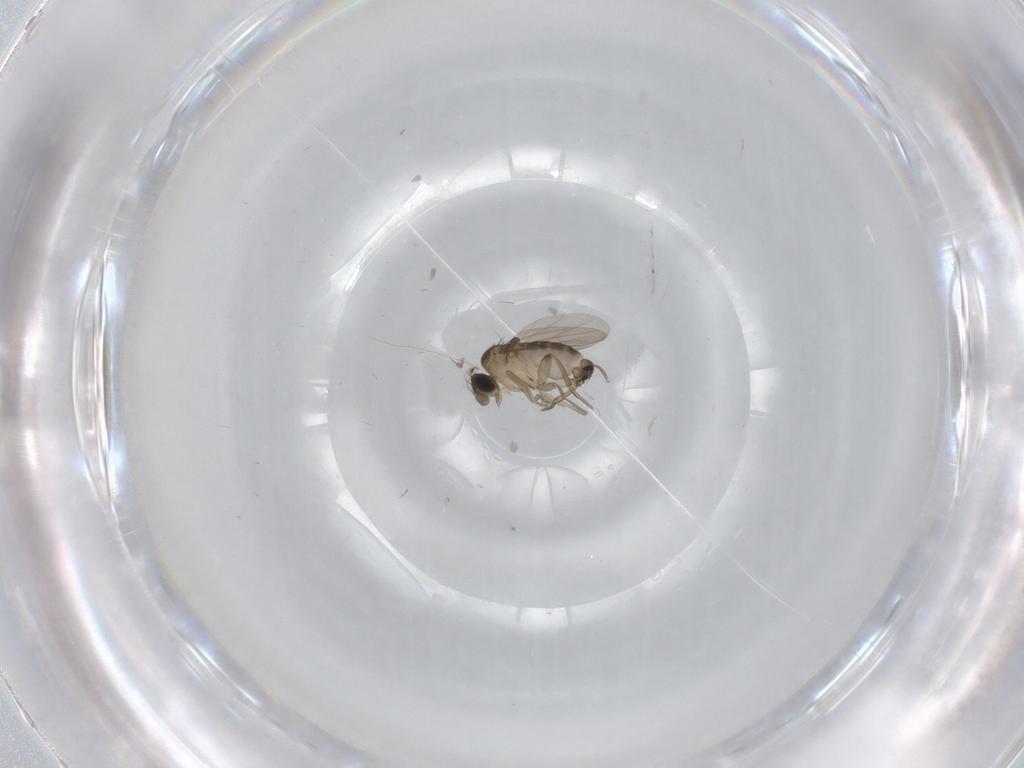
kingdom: Animalia
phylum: Arthropoda
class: Insecta
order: Diptera
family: Phoridae
